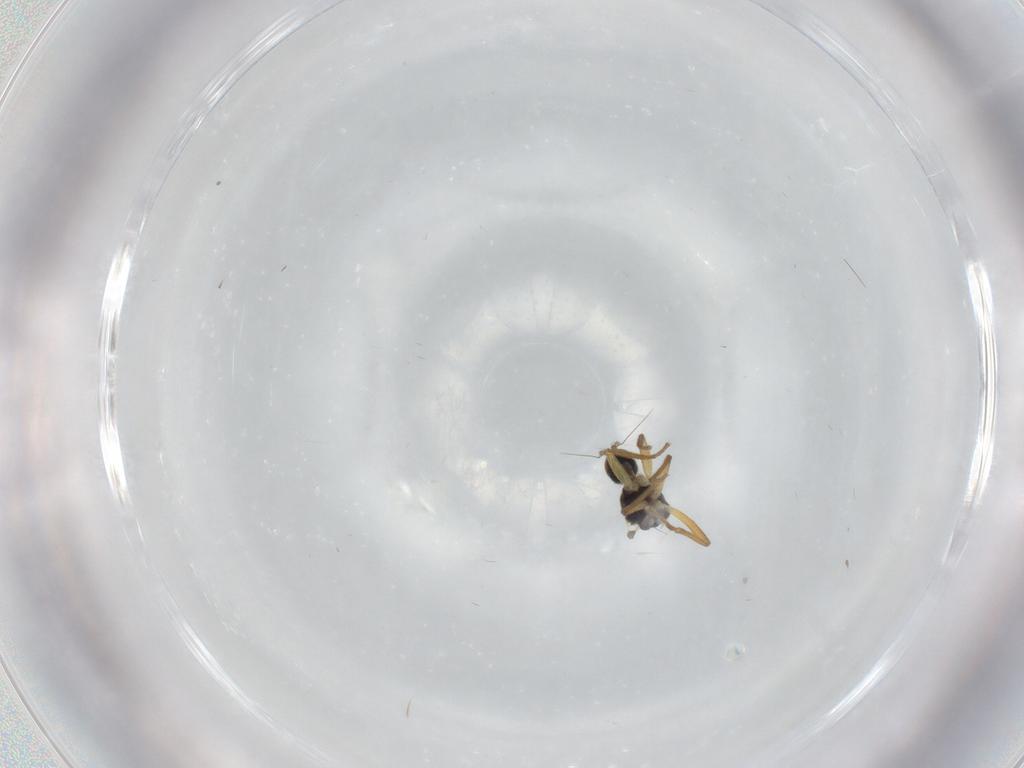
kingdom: Animalia
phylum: Arthropoda
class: Insecta
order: Diptera
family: Hybotidae
